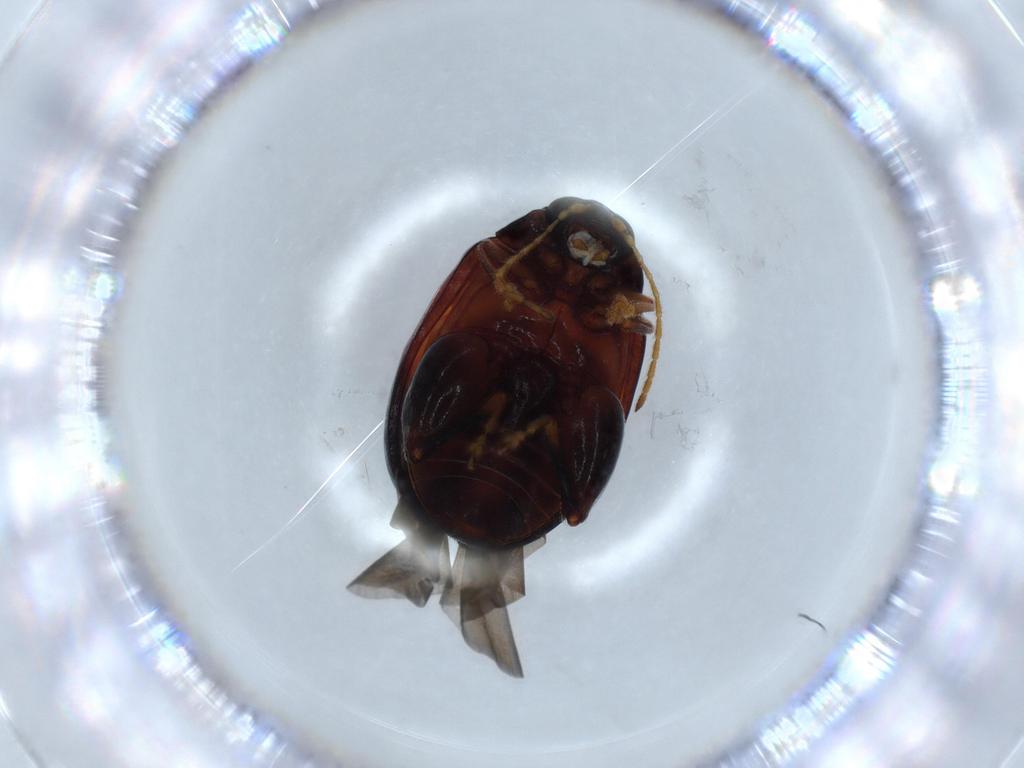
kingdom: Animalia
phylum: Arthropoda
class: Insecta
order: Coleoptera
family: Chrysomelidae
